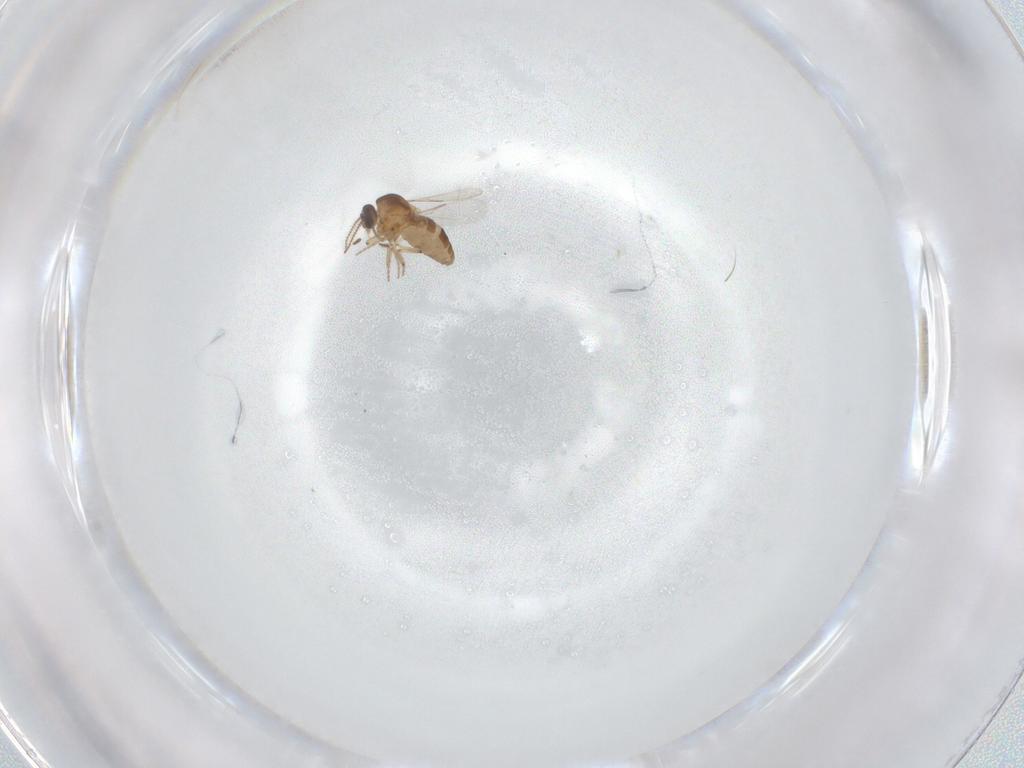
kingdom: Animalia
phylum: Arthropoda
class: Insecta
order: Diptera
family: Ceratopogonidae
